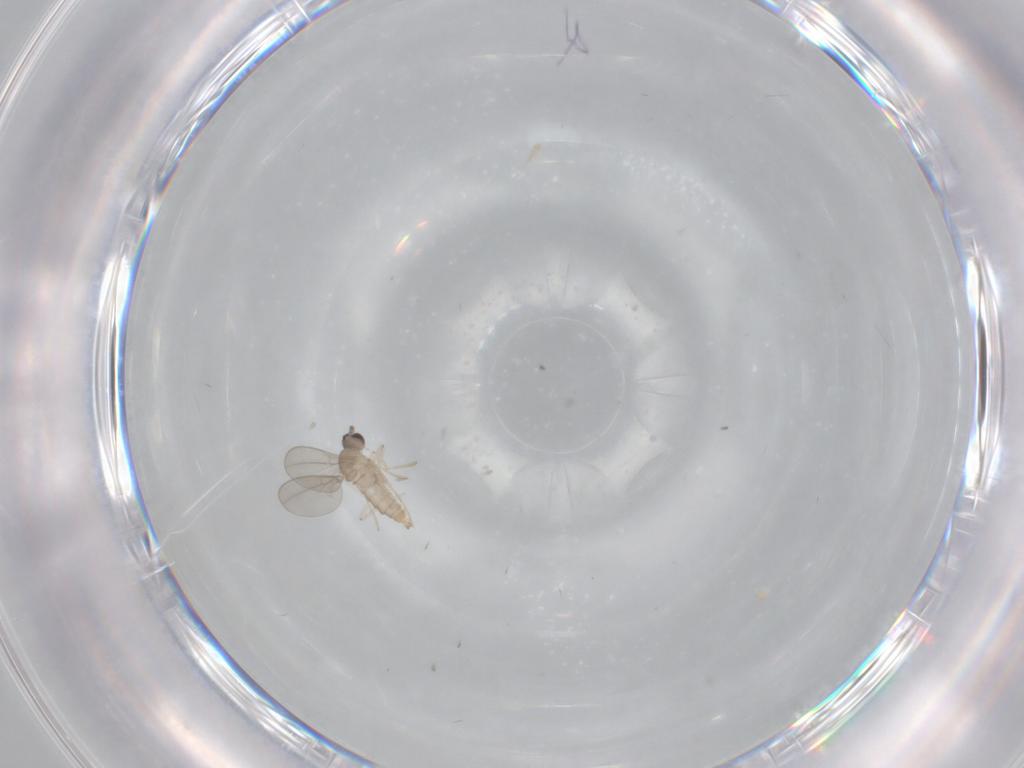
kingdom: Animalia
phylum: Arthropoda
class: Insecta
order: Diptera
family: Cecidomyiidae
